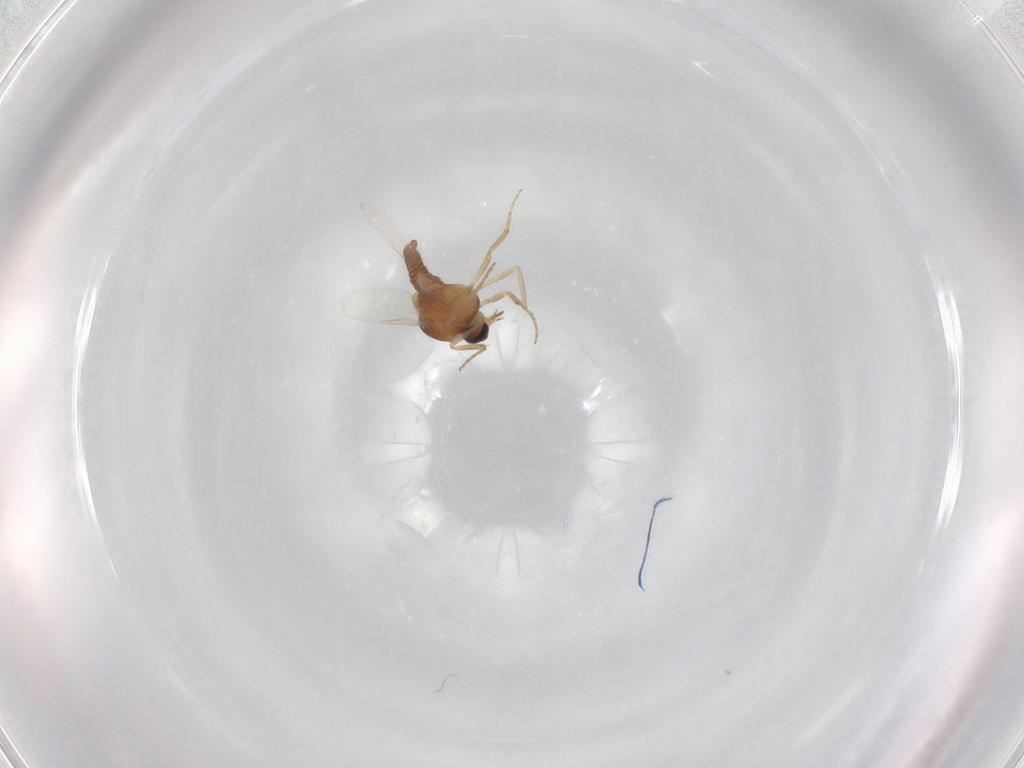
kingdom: Animalia
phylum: Arthropoda
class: Insecta
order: Diptera
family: Ceratopogonidae
